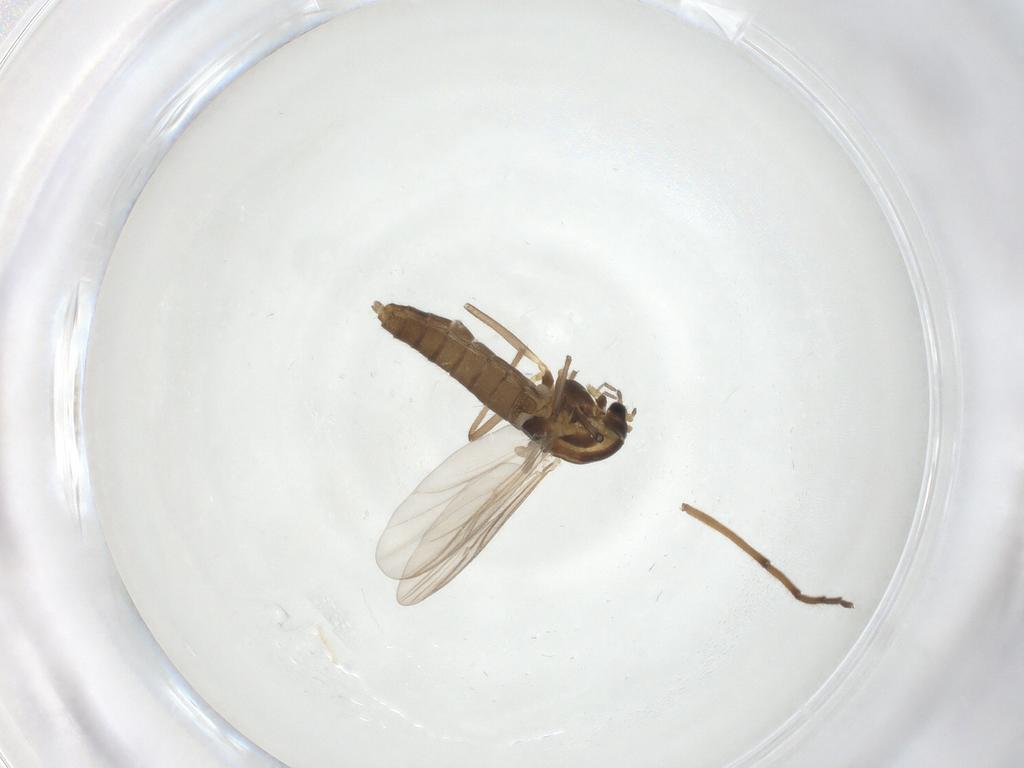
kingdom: Animalia
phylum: Arthropoda
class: Insecta
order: Diptera
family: Chironomidae
